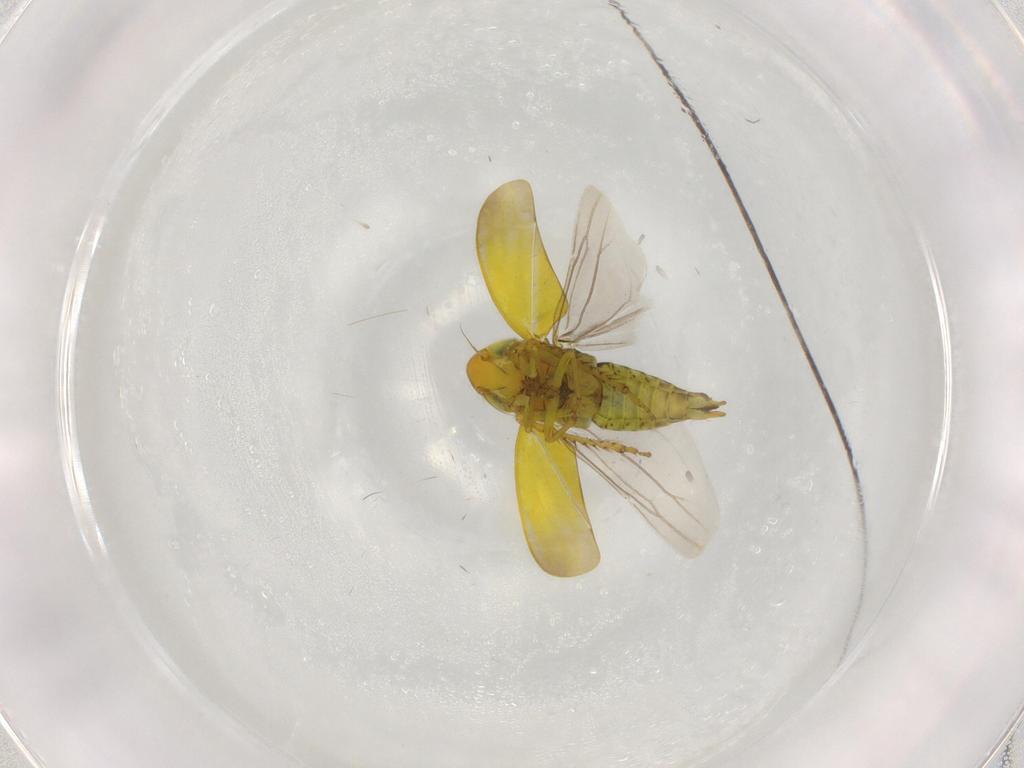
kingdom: Animalia
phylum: Arthropoda
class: Insecta
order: Hemiptera
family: Cicadellidae
